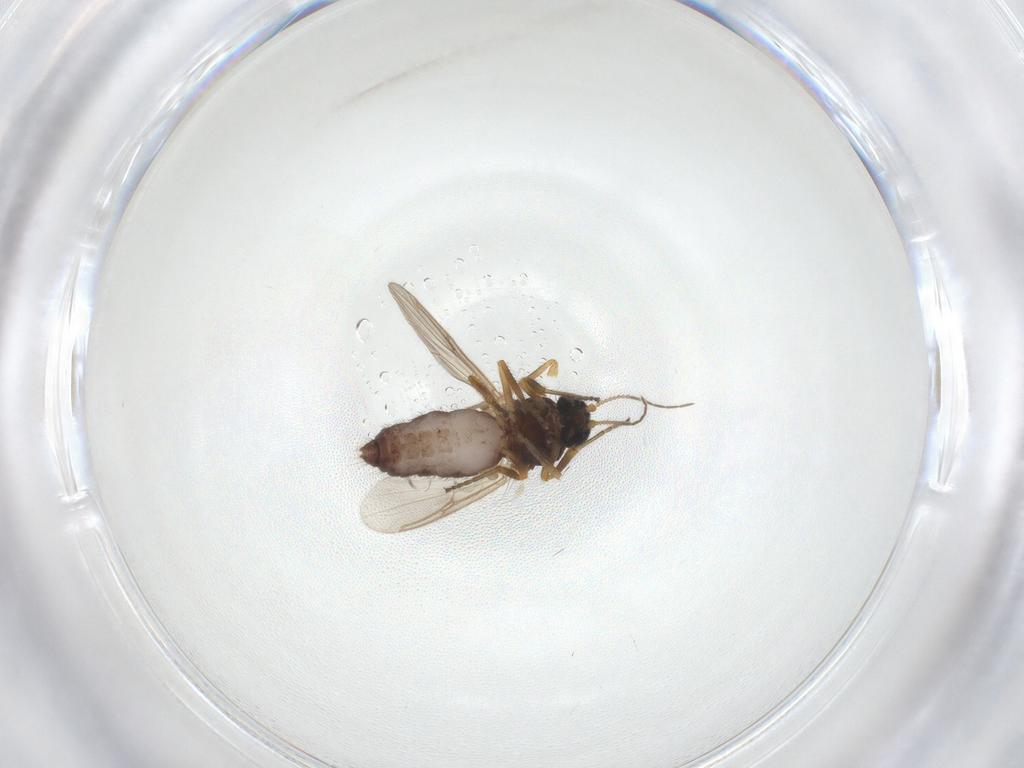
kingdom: Animalia
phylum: Arthropoda
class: Insecta
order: Diptera
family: Ceratopogonidae
